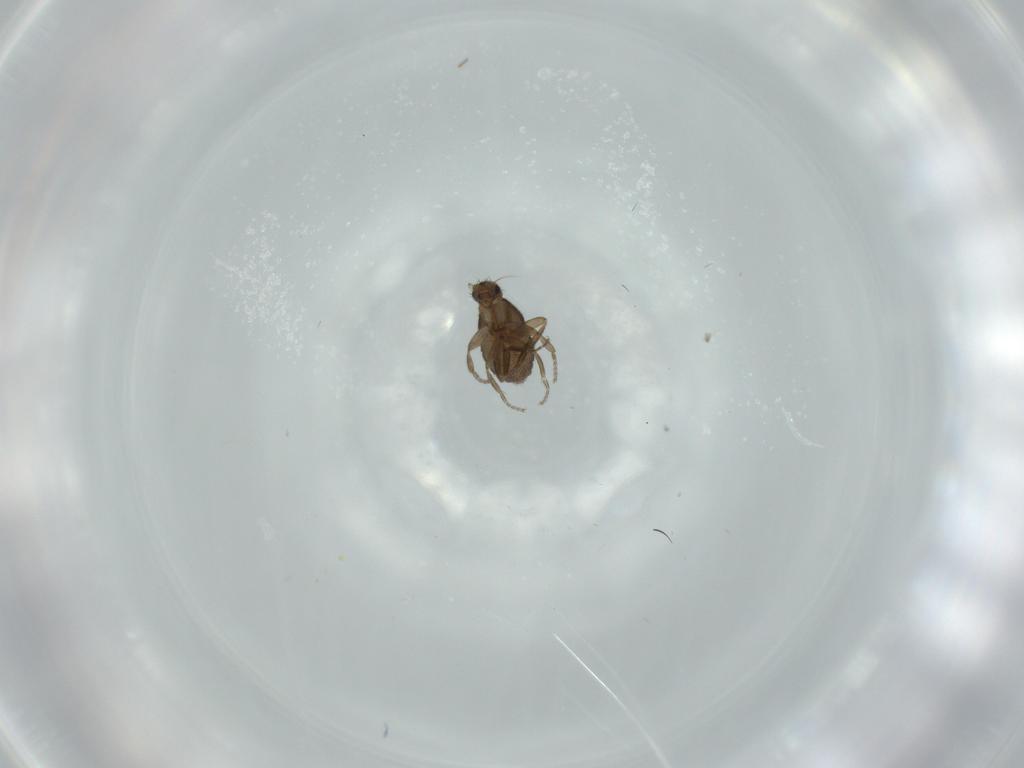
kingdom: Animalia
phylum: Arthropoda
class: Insecta
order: Diptera
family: Phoridae
